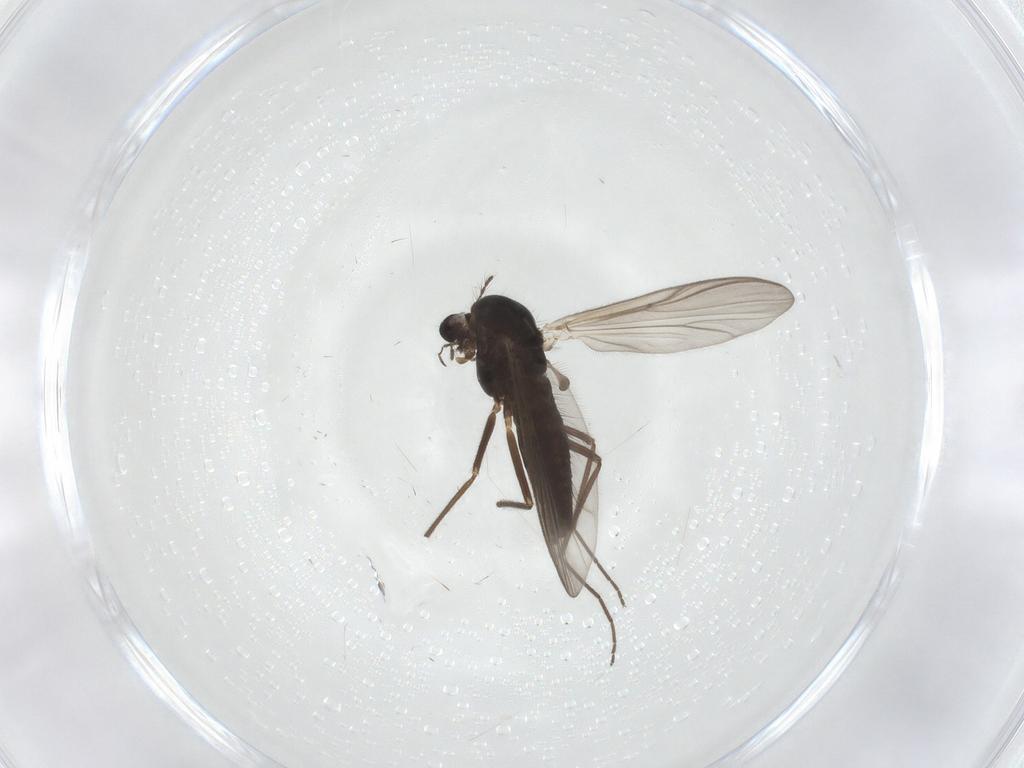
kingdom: Animalia
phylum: Arthropoda
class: Insecta
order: Diptera
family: Chironomidae
